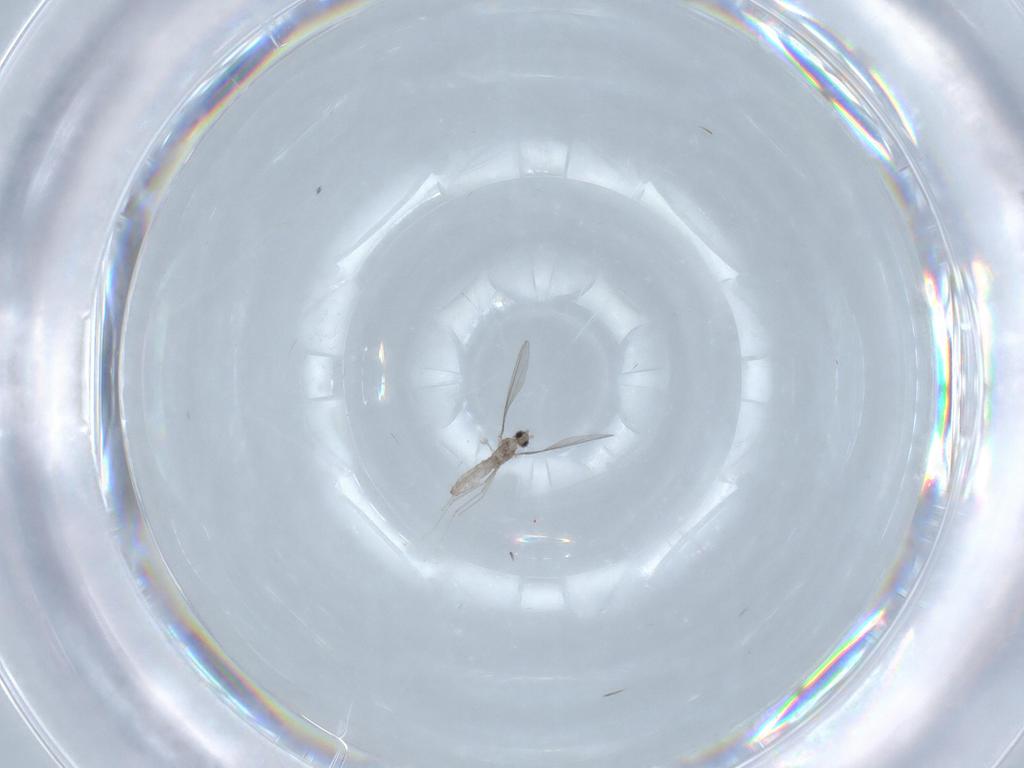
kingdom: Animalia
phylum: Arthropoda
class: Insecta
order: Diptera
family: Cecidomyiidae
